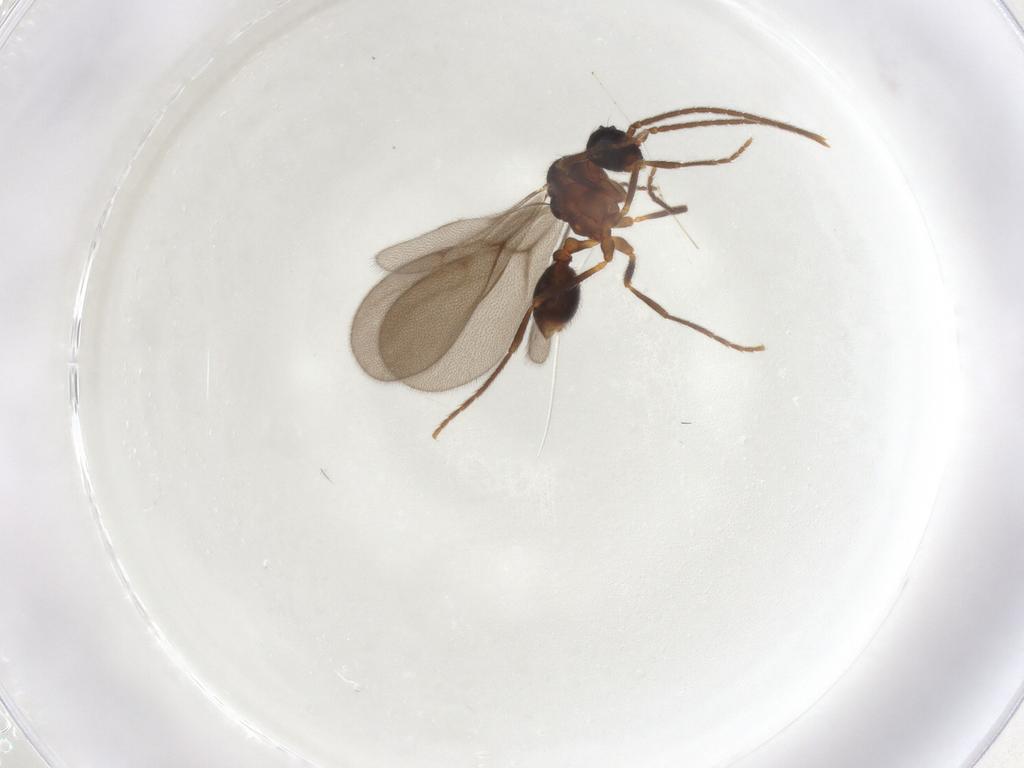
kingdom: Animalia
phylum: Arthropoda
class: Insecta
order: Hymenoptera
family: Formicidae
